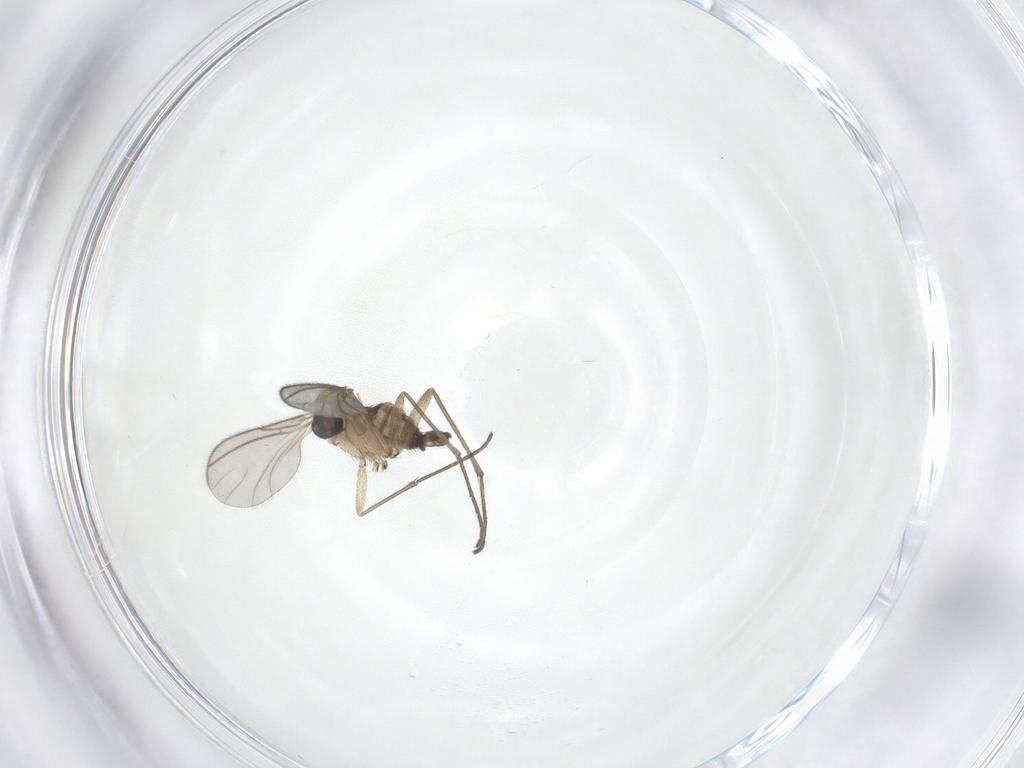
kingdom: Animalia
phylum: Arthropoda
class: Insecta
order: Diptera
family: Sciaridae
